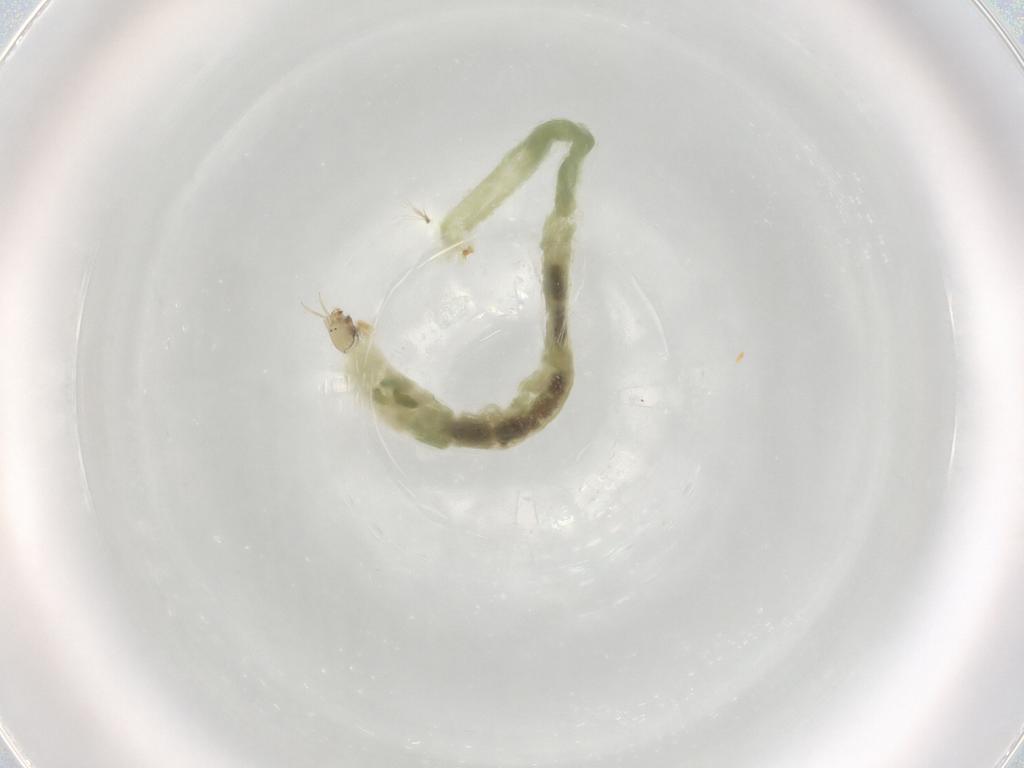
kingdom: Animalia
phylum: Arthropoda
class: Insecta
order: Diptera
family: Chironomidae
